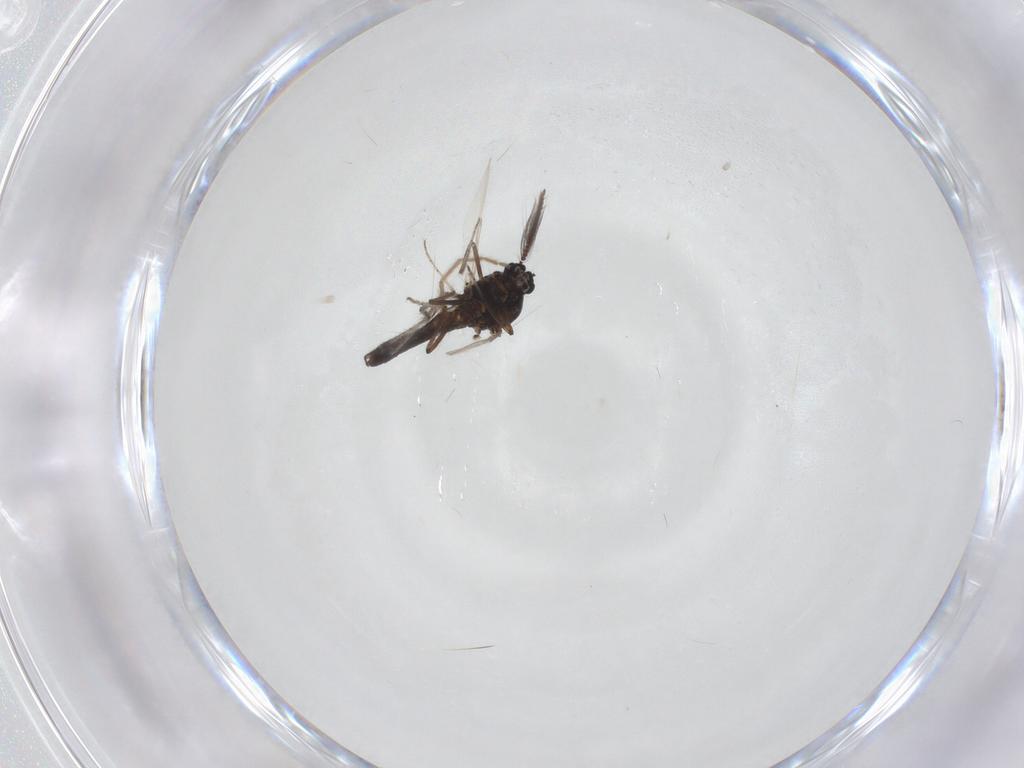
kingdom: Animalia
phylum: Arthropoda
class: Insecta
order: Diptera
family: Ceratopogonidae
